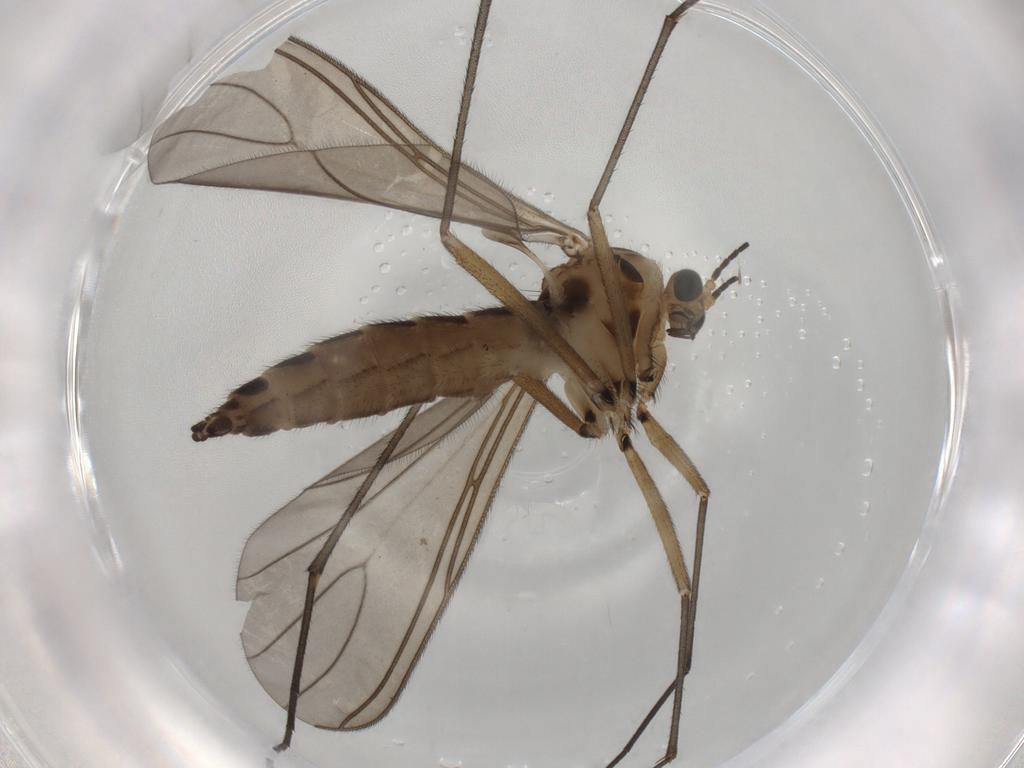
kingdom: Animalia
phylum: Arthropoda
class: Insecta
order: Diptera
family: Sciaridae
